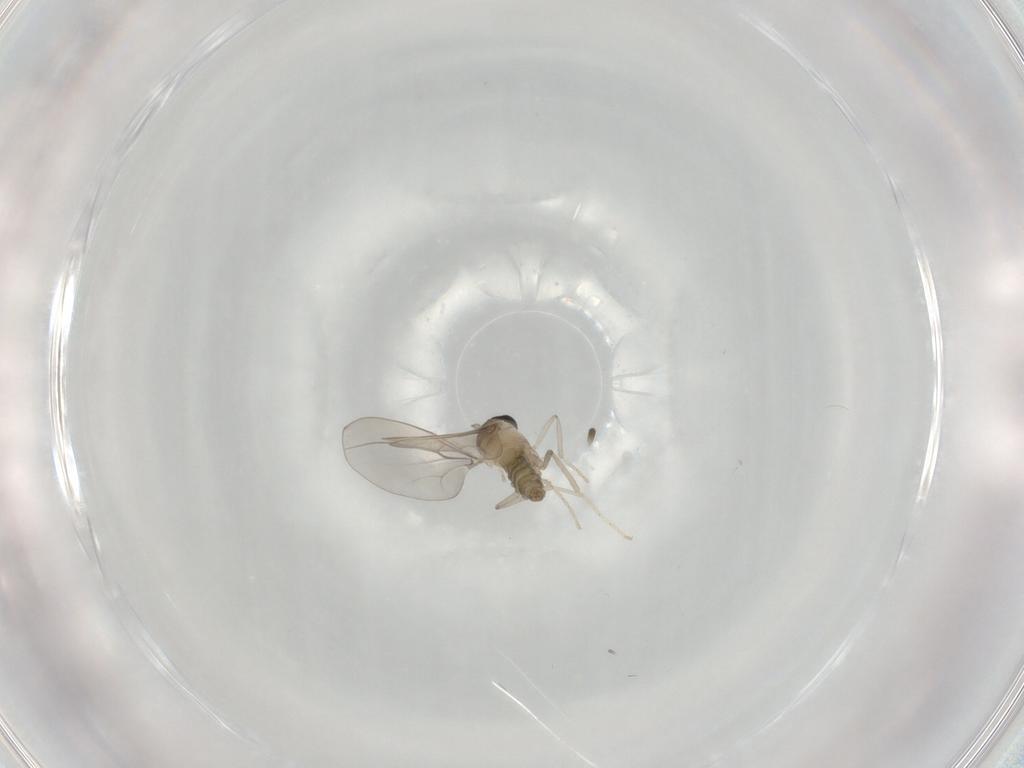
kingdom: Animalia
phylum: Arthropoda
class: Insecta
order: Diptera
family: Cecidomyiidae
